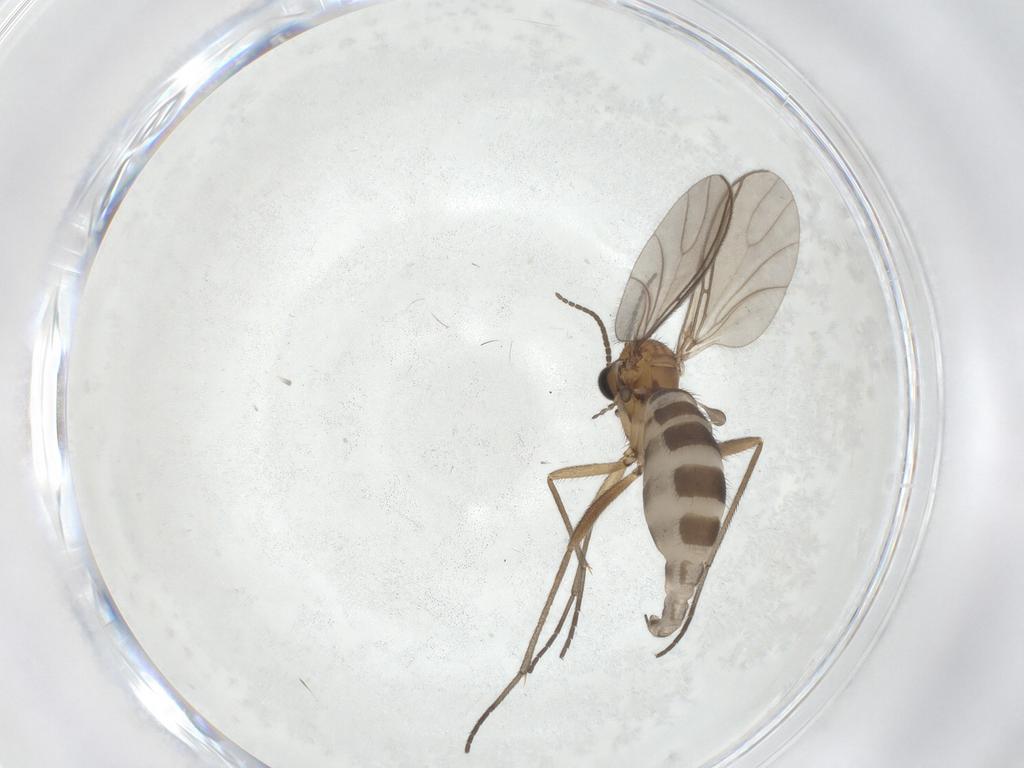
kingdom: Animalia
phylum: Arthropoda
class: Insecta
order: Diptera
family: Sciaridae
